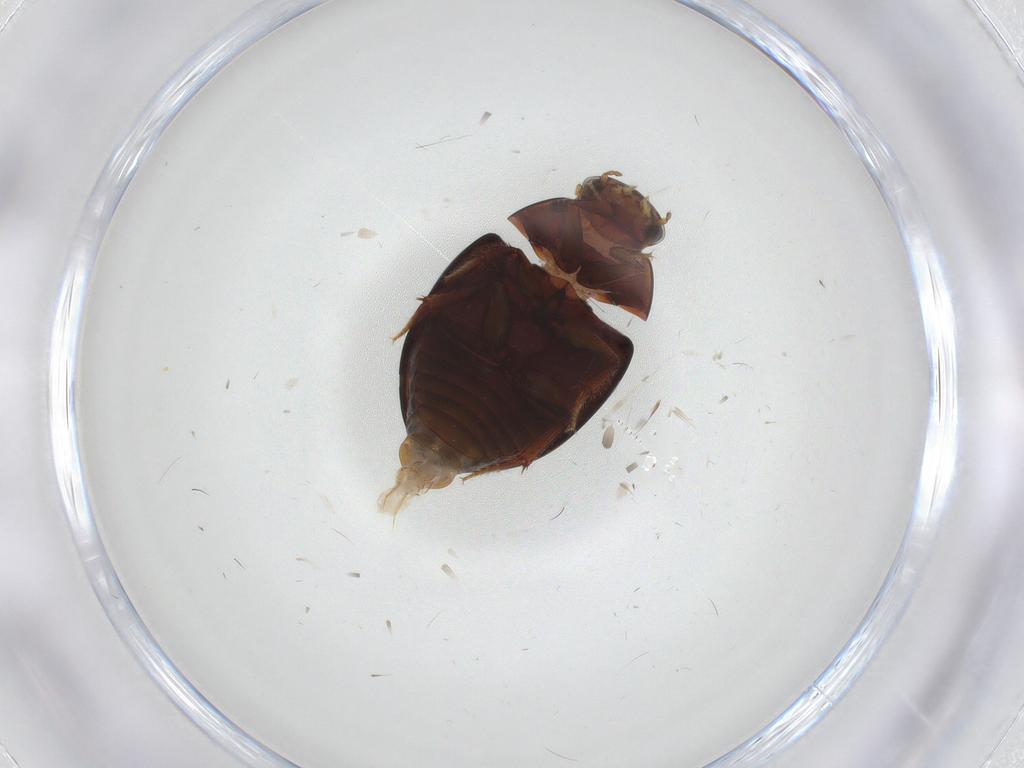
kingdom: Animalia
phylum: Arthropoda
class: Insecta
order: Coleoptera
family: Hydrophilidae
